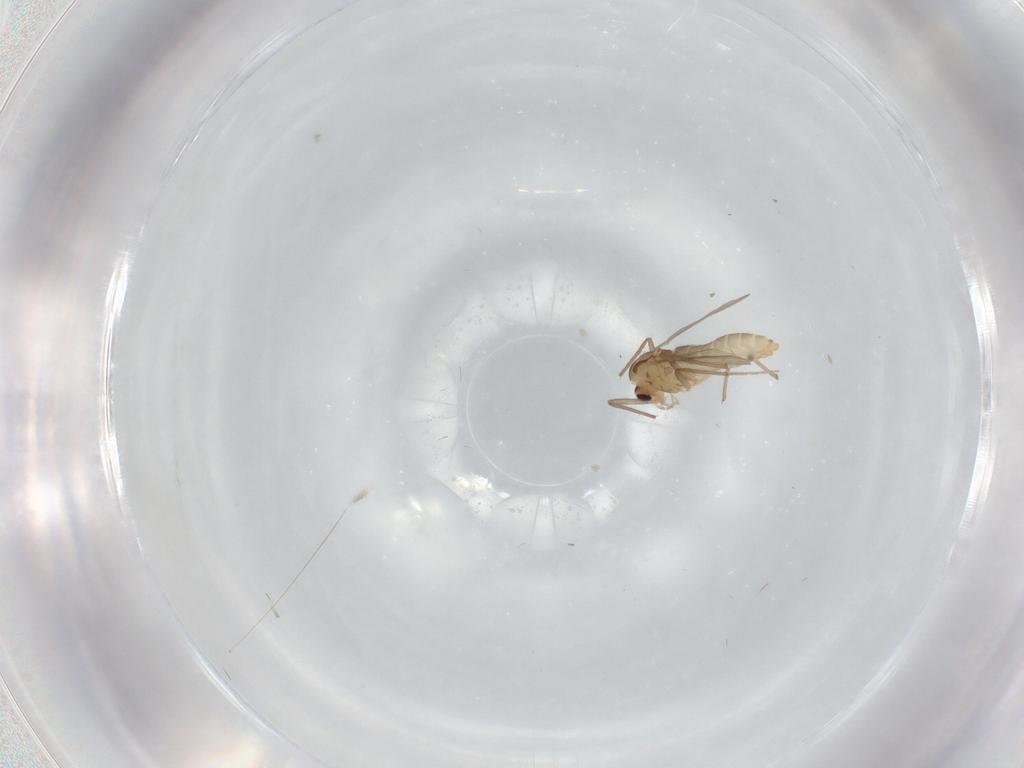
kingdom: Animalia
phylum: Arthropoda
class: Insecta
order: Diptera
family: Chironomidae
